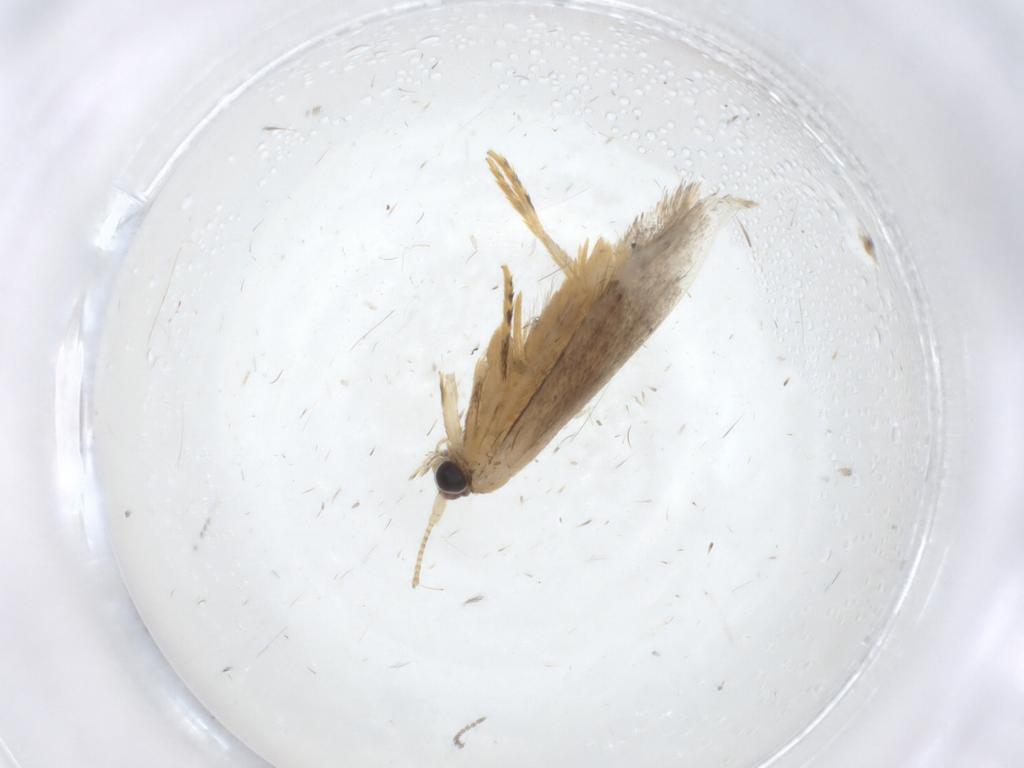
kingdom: Animalia
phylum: Arthropoda
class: Insecta
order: Lepidoptera
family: Tineidae
